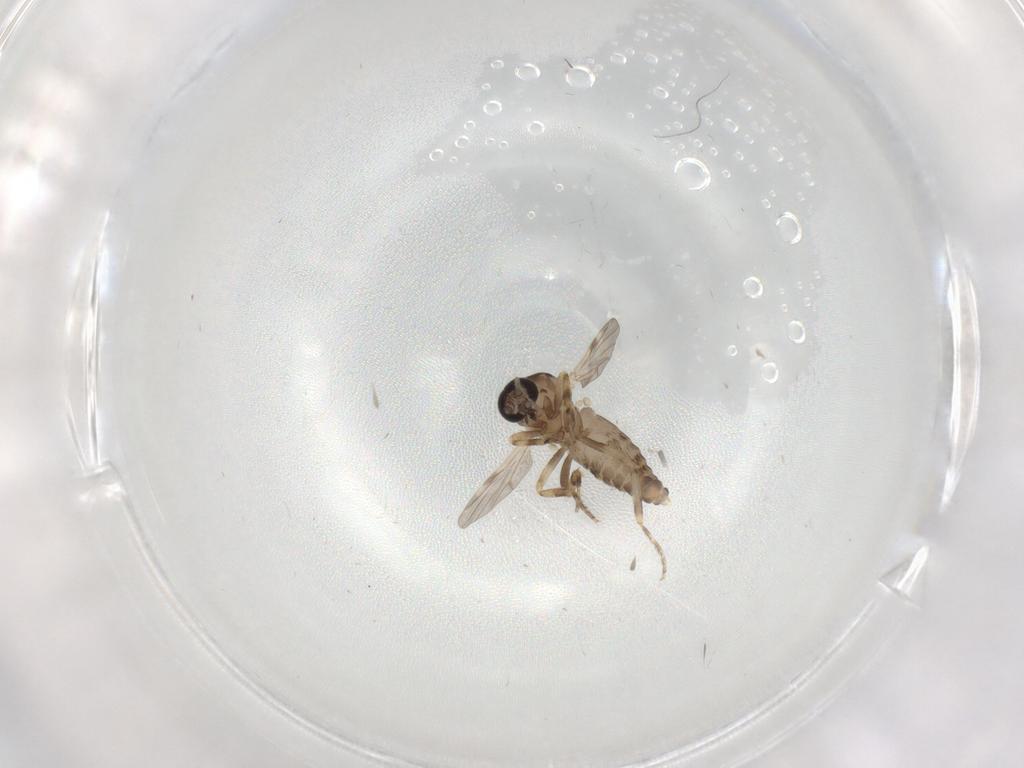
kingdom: Animalia
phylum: Arthropoda
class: Insecta
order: Diptera
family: Ceratopogonidae
